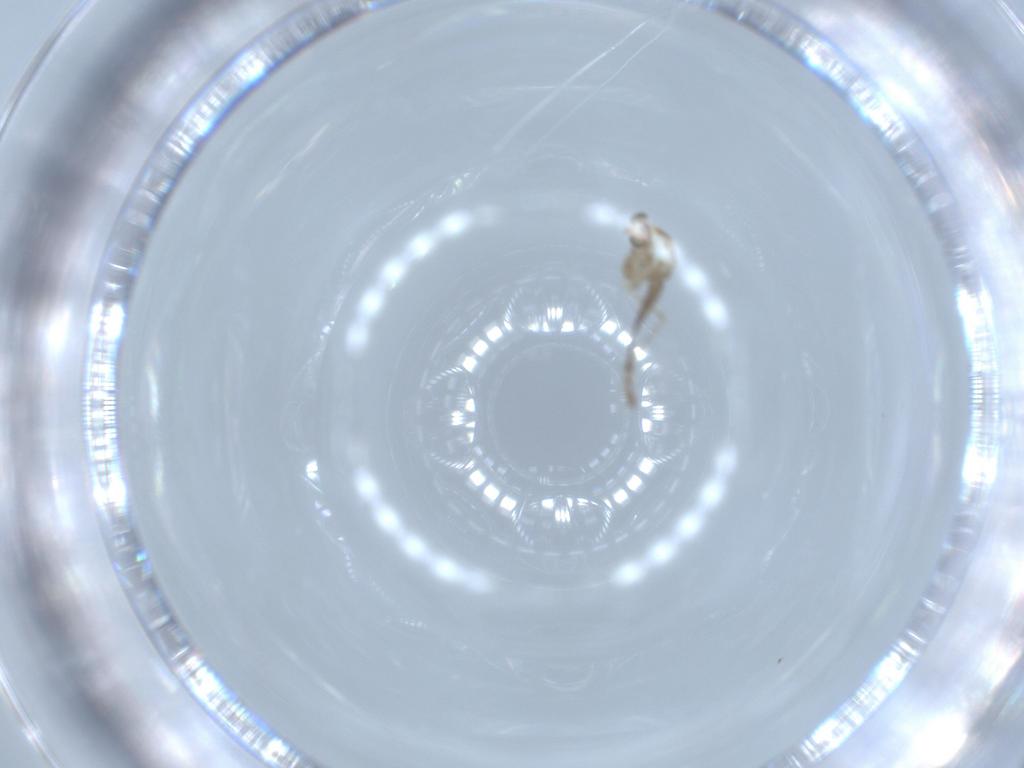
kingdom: Animalia
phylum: Arthropoda
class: Insecta
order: Diptera
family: Chironomidae
